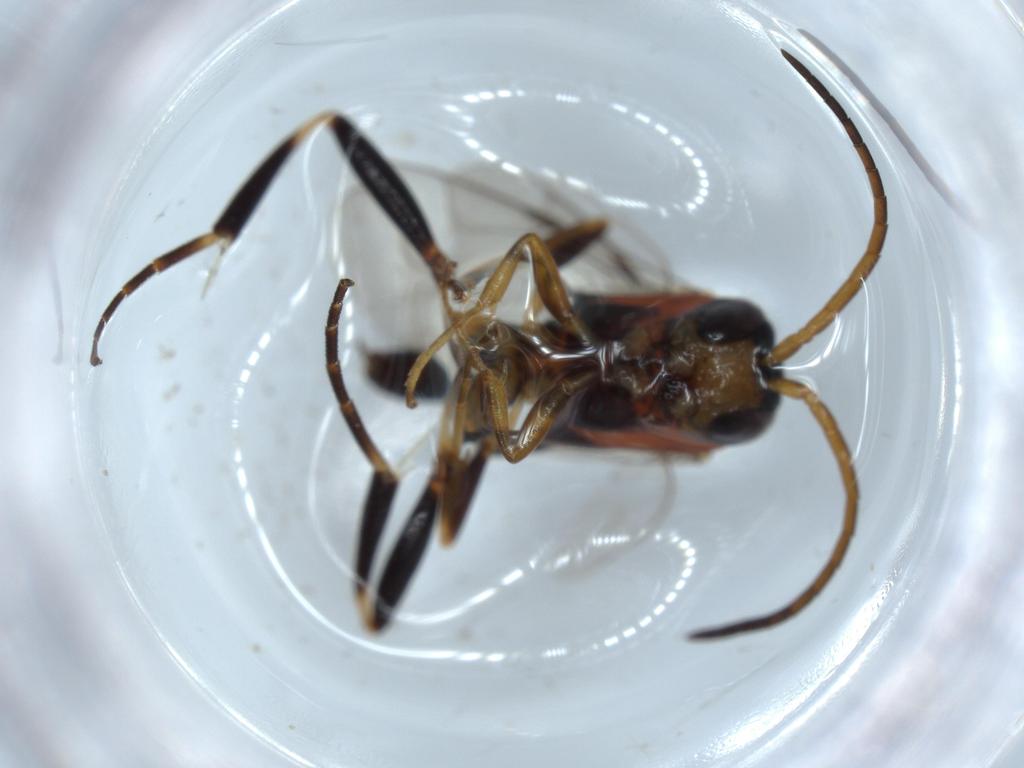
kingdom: Animalia
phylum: Arthropoda
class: Insecta
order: Hymenoptera
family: Evaniidae
